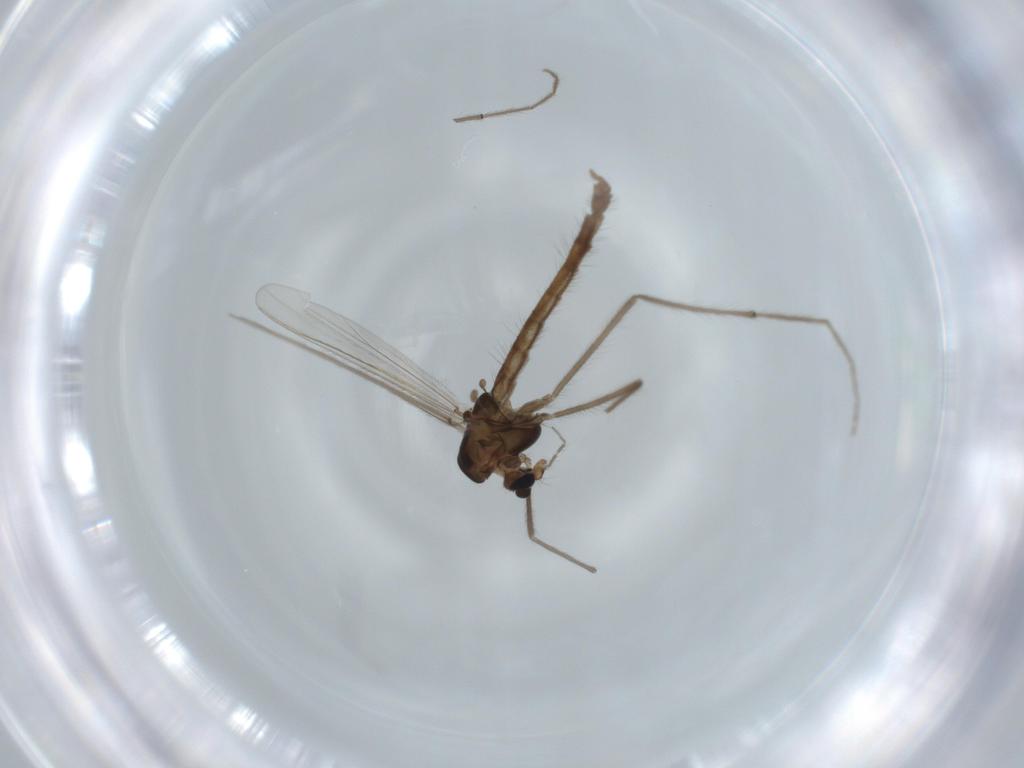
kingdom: Animalia
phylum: Arthropoda
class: Insecta
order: Diptera
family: Chironomidae
